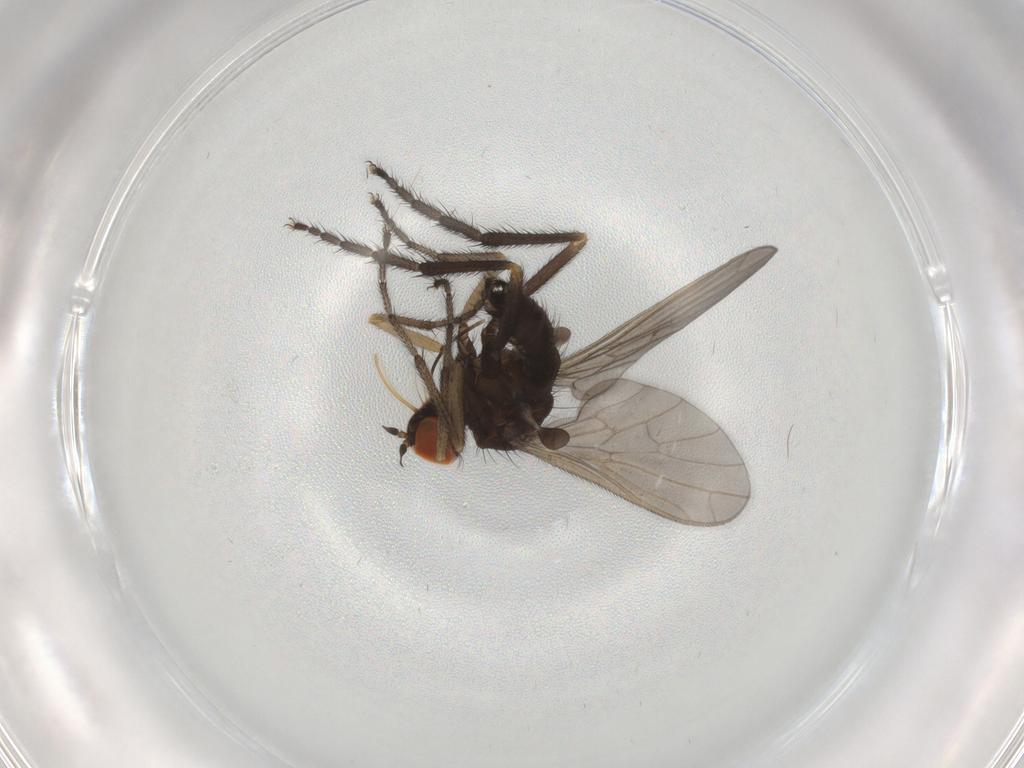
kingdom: Animalia
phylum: Arthropoda
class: Insecta
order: Diptera
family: Empididae
